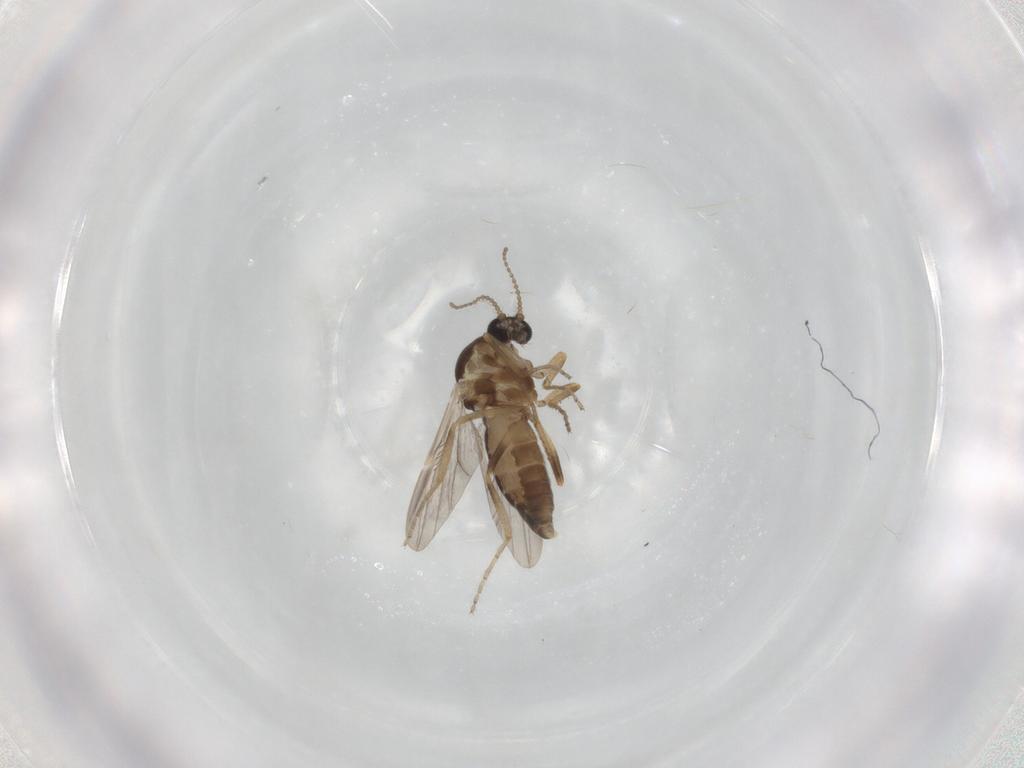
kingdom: Animalia
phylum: Arthropoda
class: Insecta
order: Diptera
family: Ceratopogonidae
